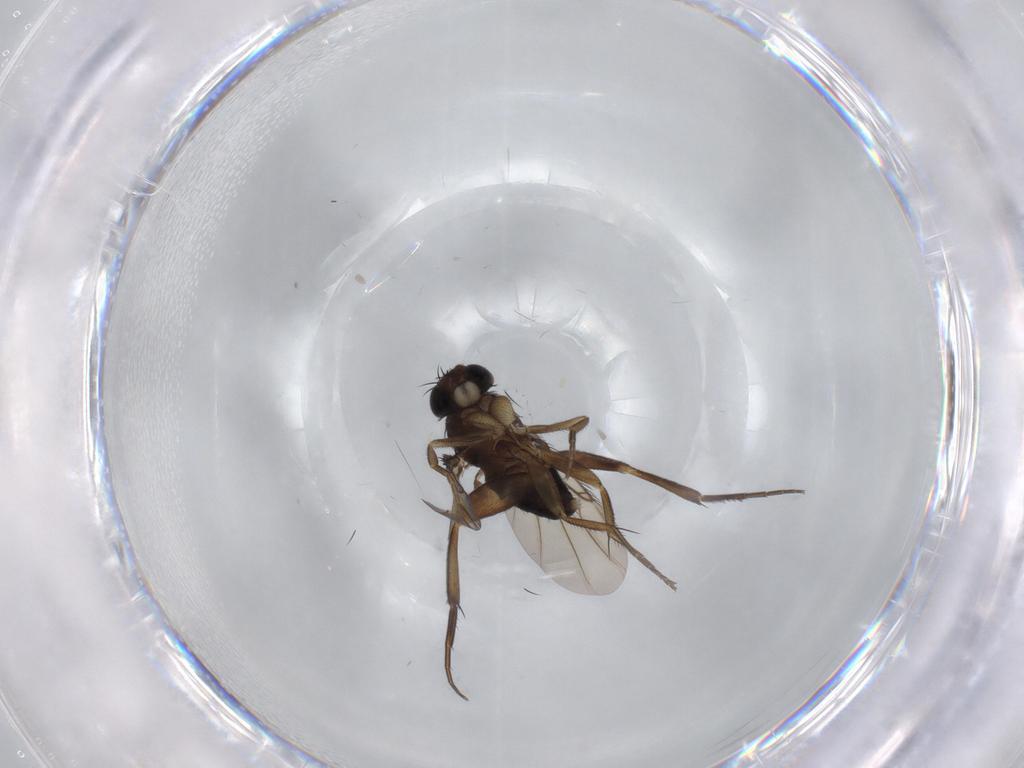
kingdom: Animalia
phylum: Arthropoda
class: Insecta
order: Diptera
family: Phoridae
